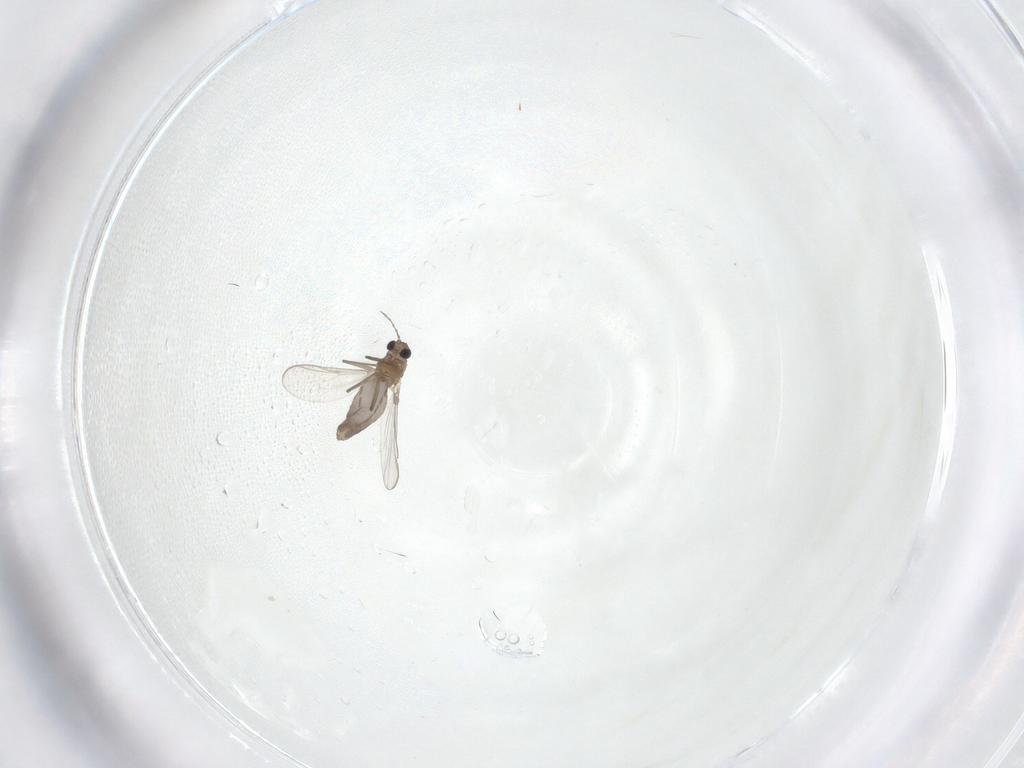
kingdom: Animalia
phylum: Arthropoda
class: Insecta
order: Diptera
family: Chironomidae
